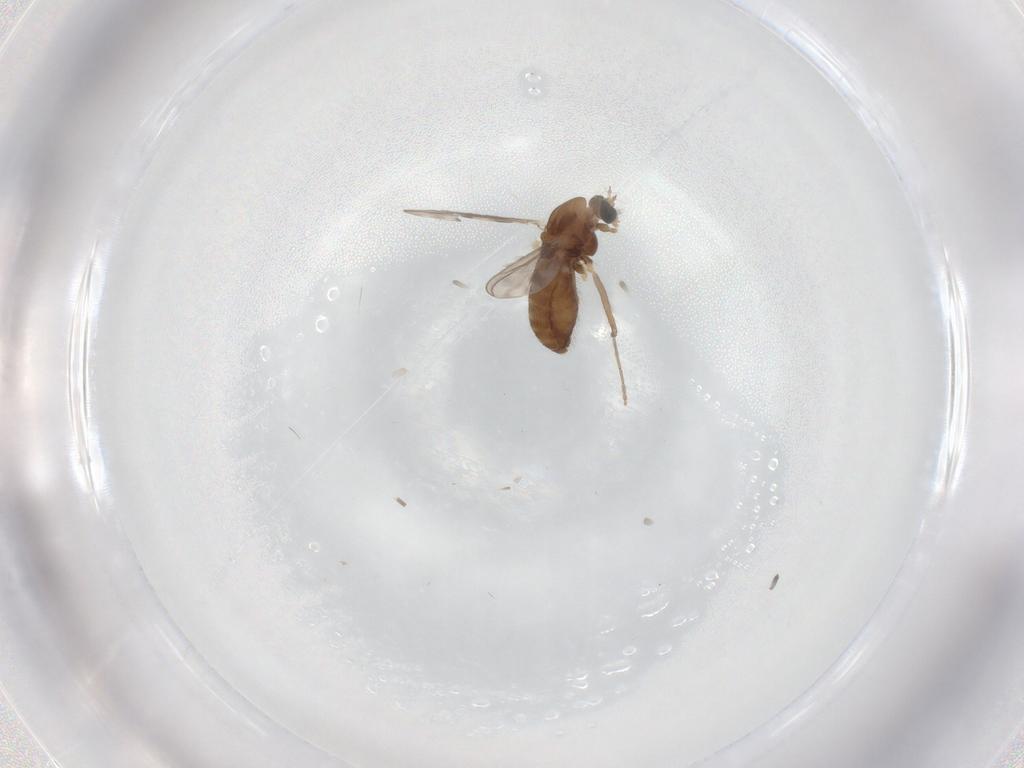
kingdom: Animalia
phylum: Arthropoda
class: Insecta
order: Diptera
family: Chironomidae
